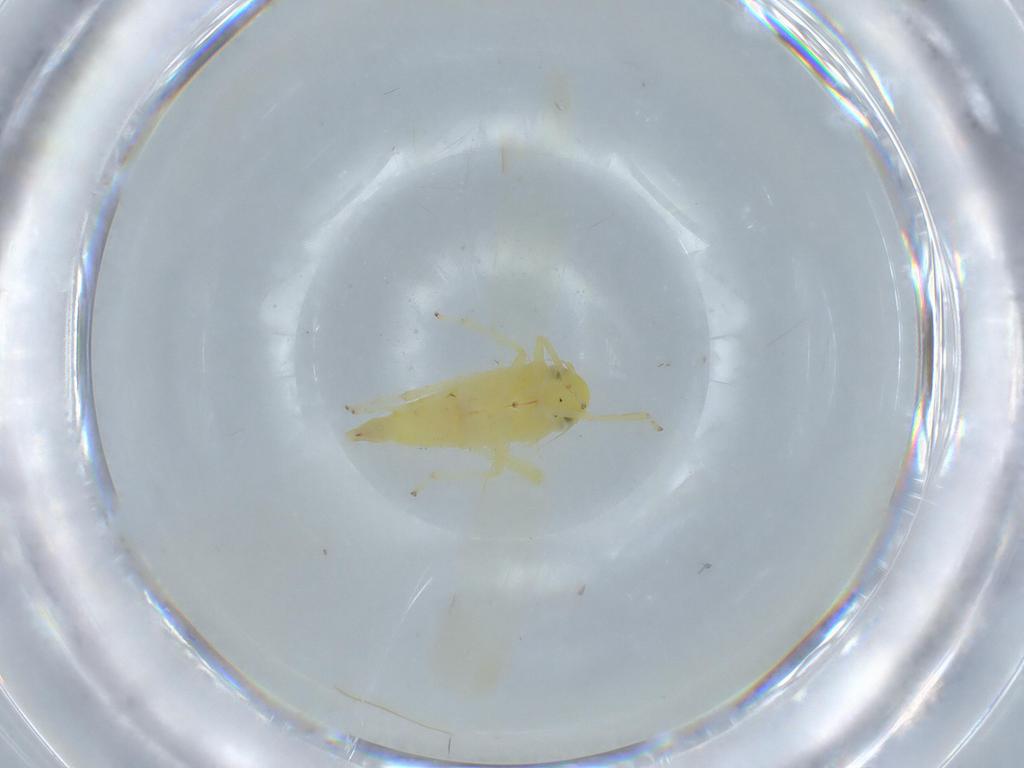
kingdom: Animalia
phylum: Arthropoda
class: Insecta
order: Hemiptera
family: Cicadellidae
